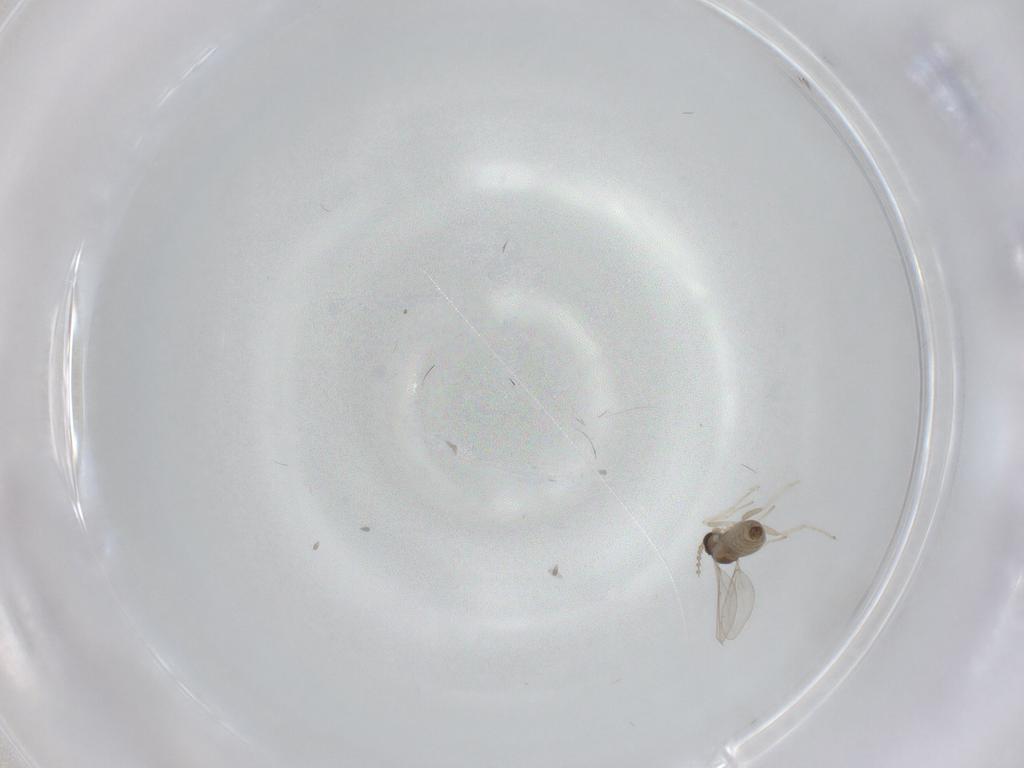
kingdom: Animalia
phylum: Arthropoda
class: Insecta
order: Diptera
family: Cecidomyiidae
